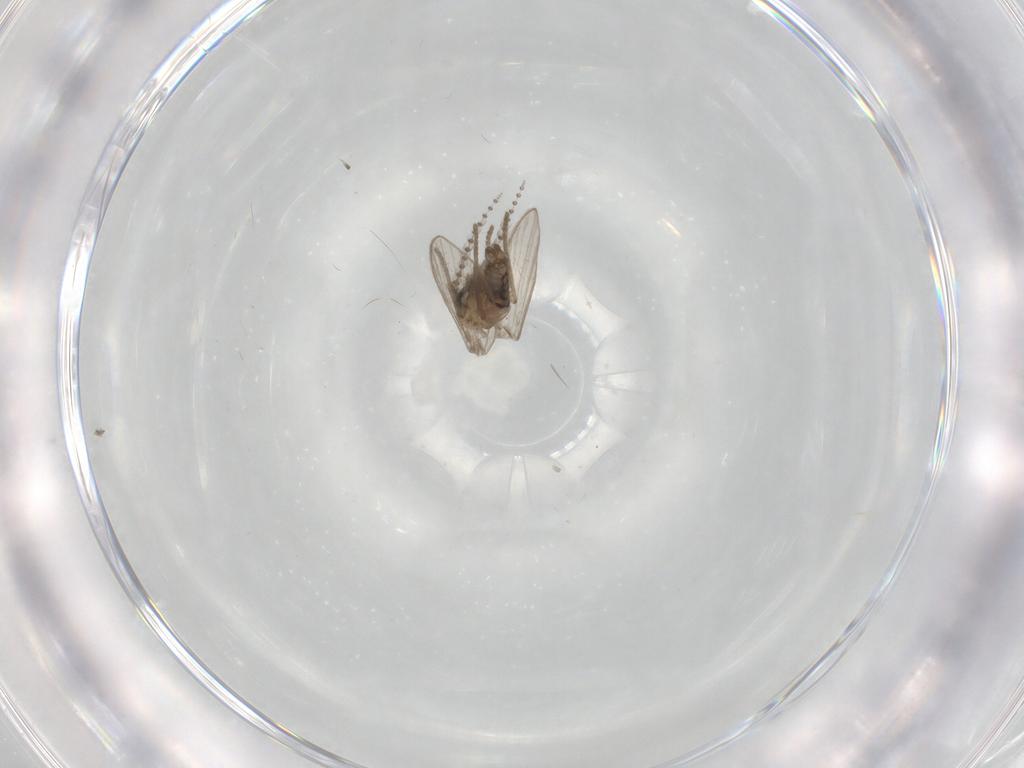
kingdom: Animalia
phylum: Arthropoda
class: Insecta
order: Diptera
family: Psychodidae
